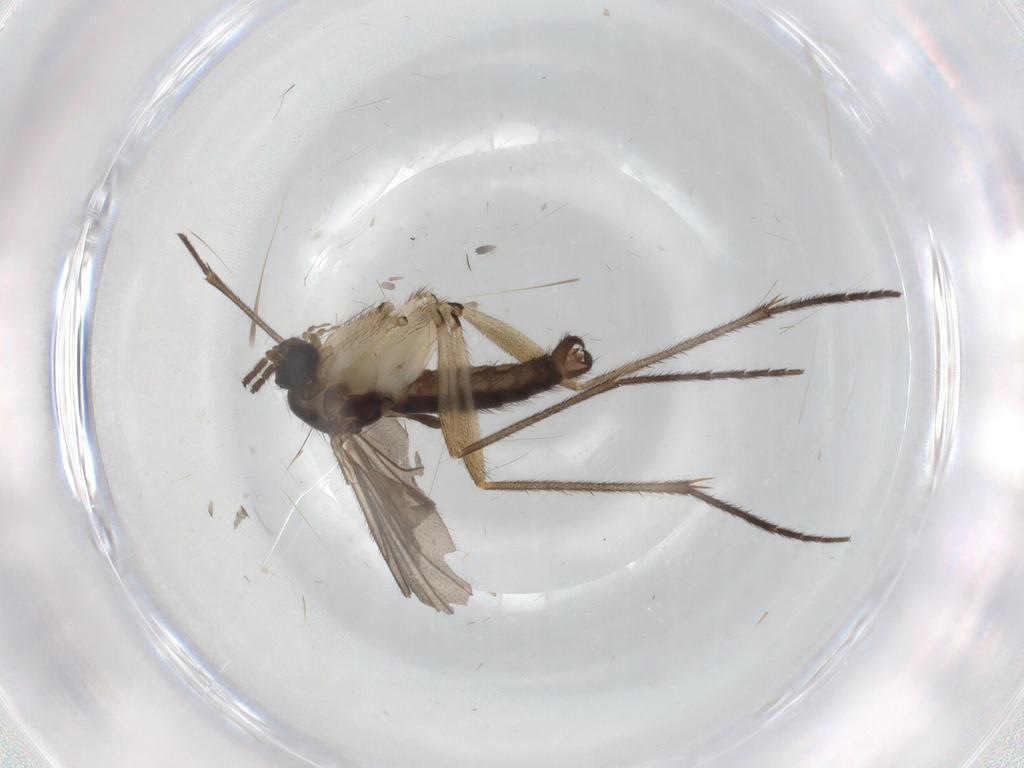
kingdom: Animalia
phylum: Arthropoda
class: Insecta
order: Diptera
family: Sciaridae
